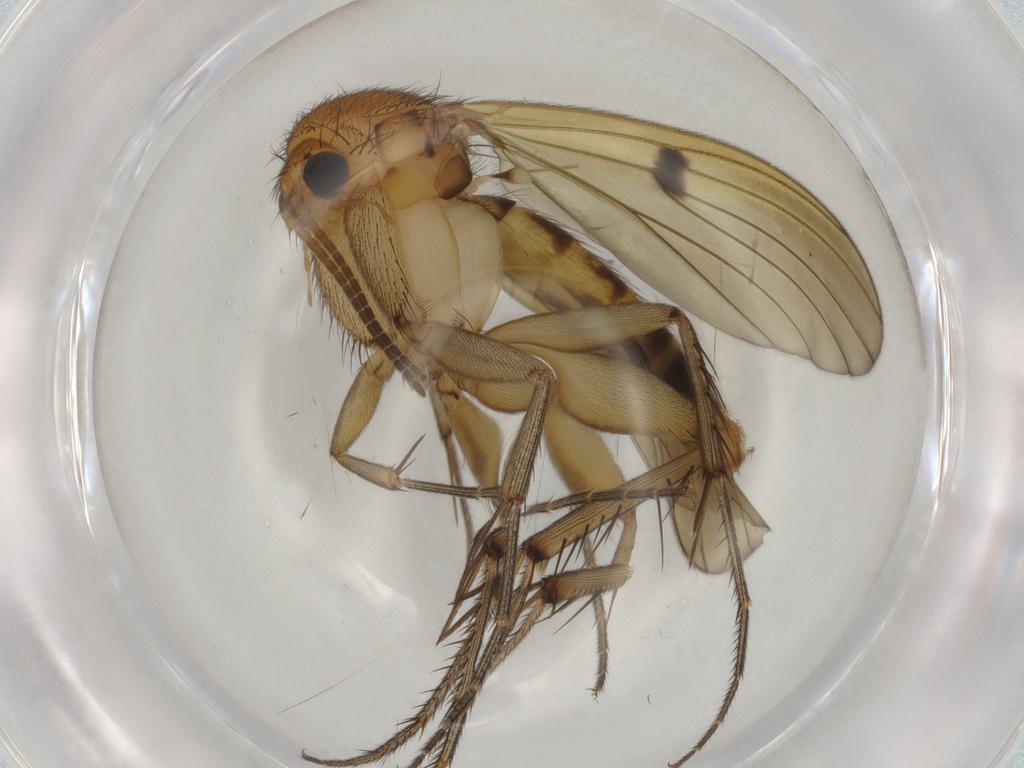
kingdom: Animalia
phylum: Arthropoda
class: Insecta
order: Diptera
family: Mycetophilidae
